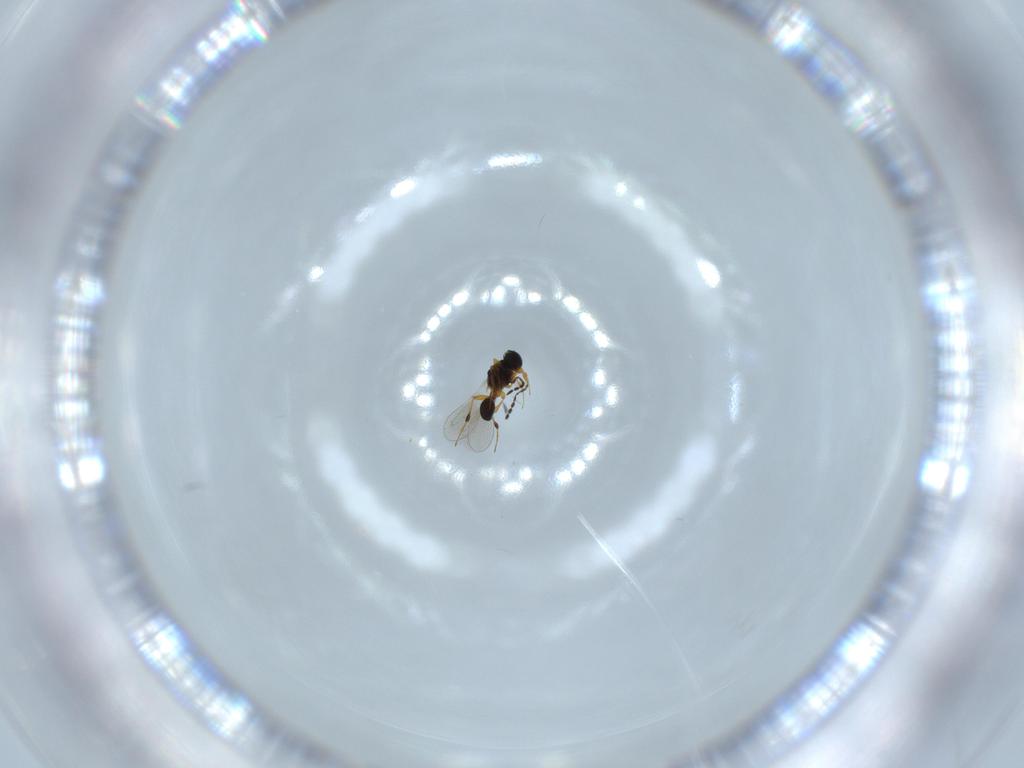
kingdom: Animalia
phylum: Arthropoda
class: Insecta
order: Hymenoptera
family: Platygastridae
